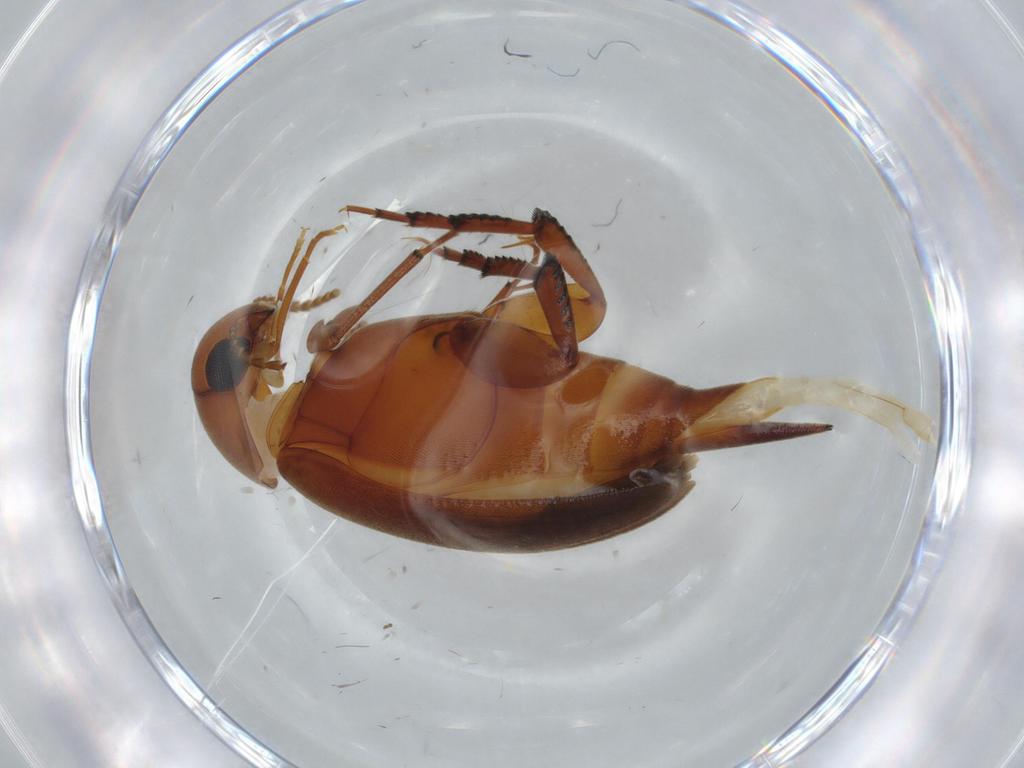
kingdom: Animalia
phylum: Arthropoda
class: Insecta
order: Coleoptera
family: Mordellidae
